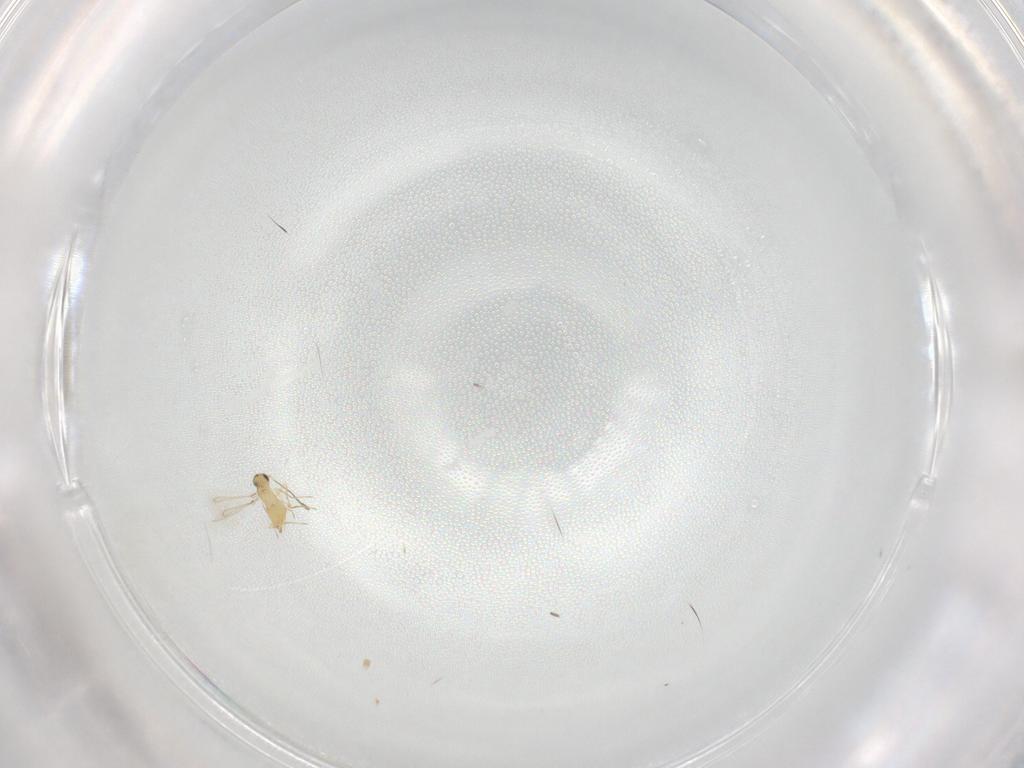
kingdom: Animalia
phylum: Arthropoda
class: Insecta
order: Hymenoptera
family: Mymaridae
